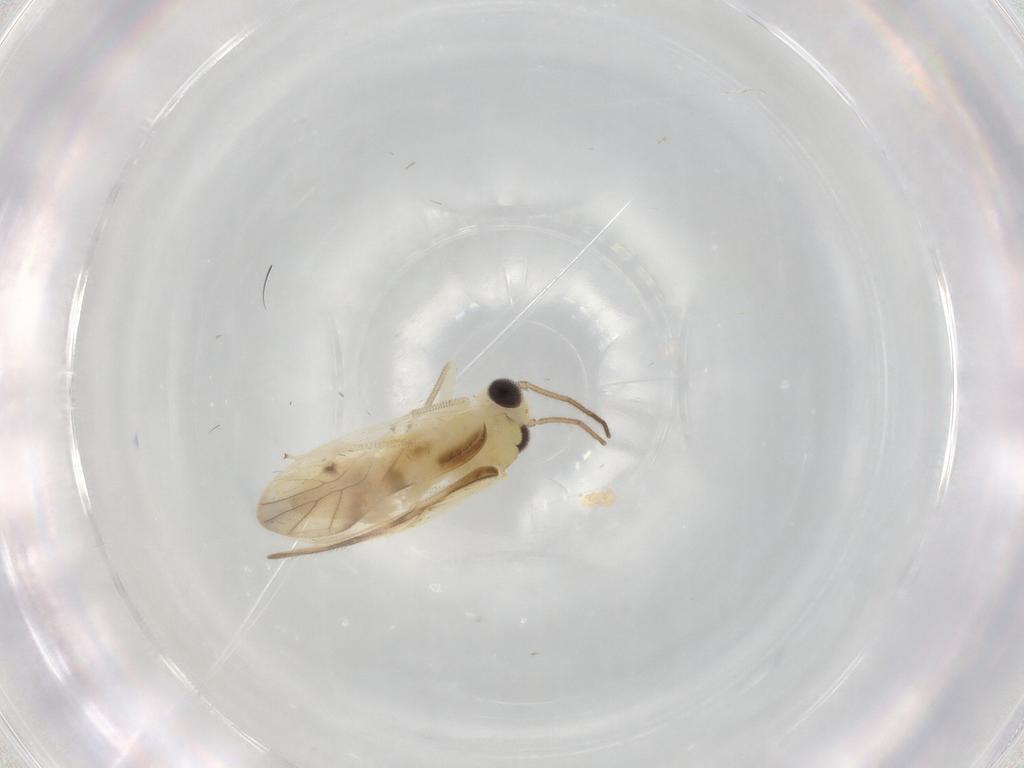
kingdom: Animalia
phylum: Arthropoda
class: Insecta
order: Psocodea
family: Caeciliusidae
